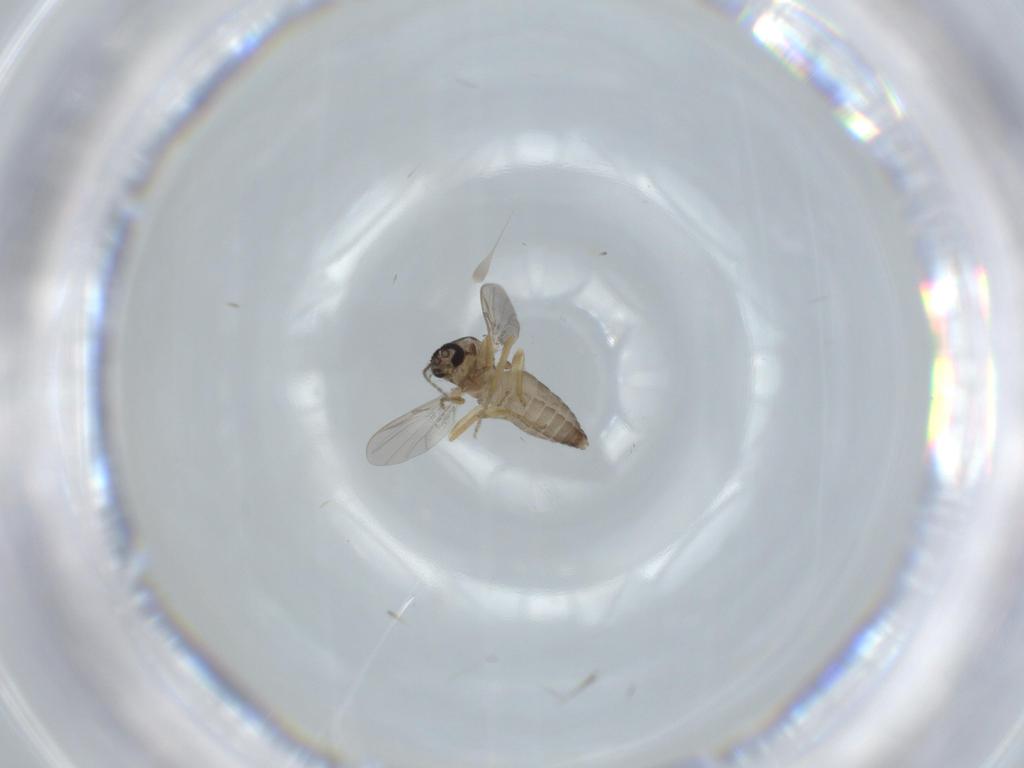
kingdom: Animalia
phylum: Arthropoda
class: Insecta
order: Diptera
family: Ceratopogonidae
